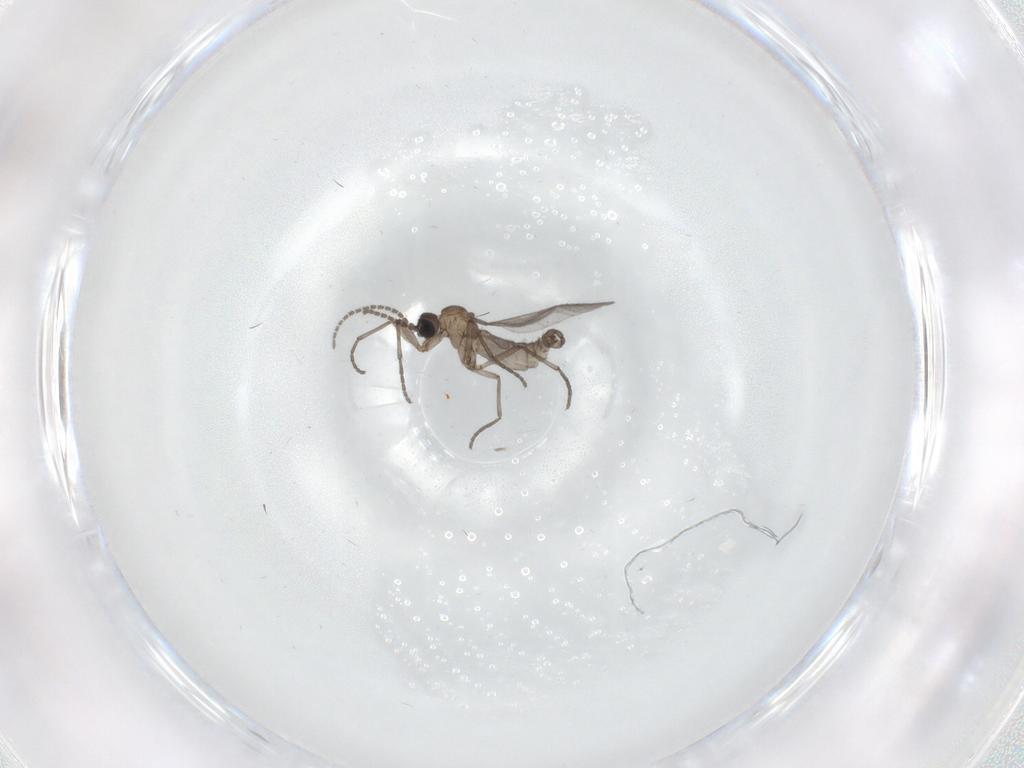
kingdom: Animalia
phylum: Arthropoda
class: Insecta
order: Diptera
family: Sciaridae
